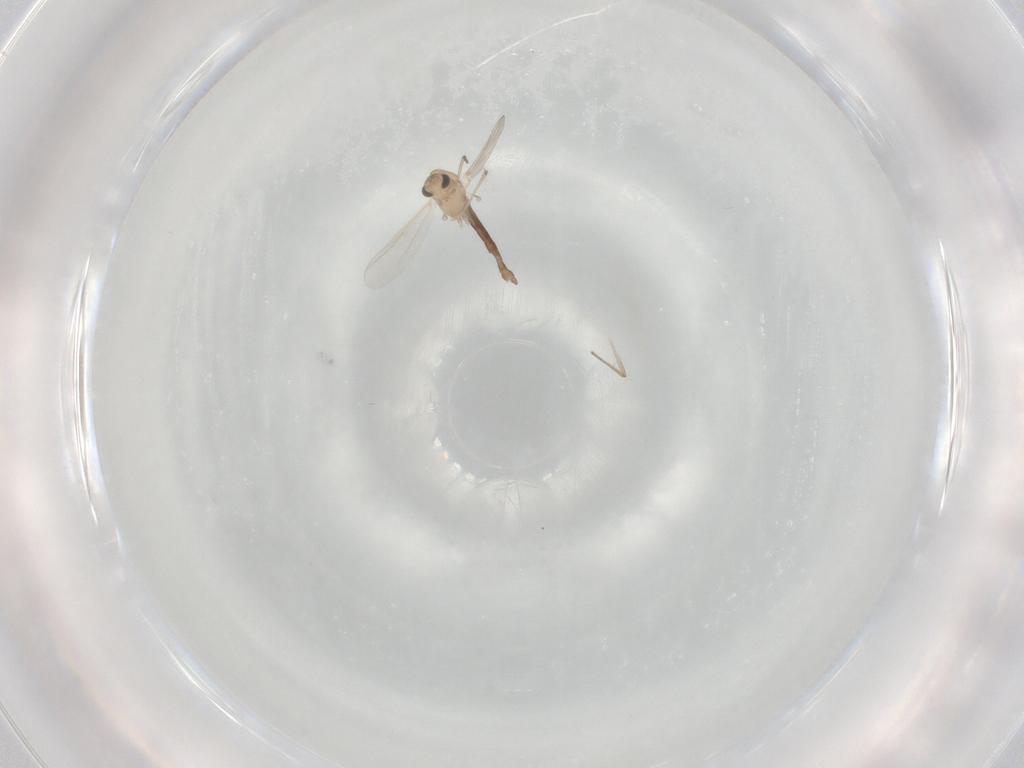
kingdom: Animalia
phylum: Arthropoda
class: Insecta
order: Diptera
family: Chironomidae
